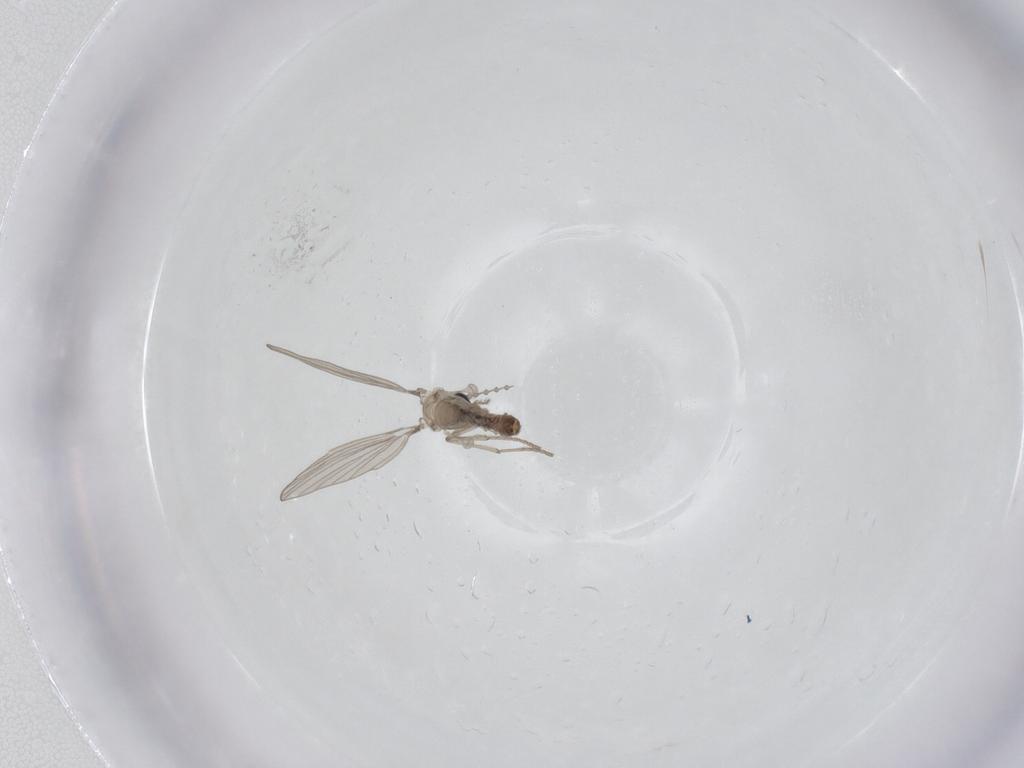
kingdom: Animalia
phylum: Arthropoda
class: Insecta
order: Diptera
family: Psychodidae
